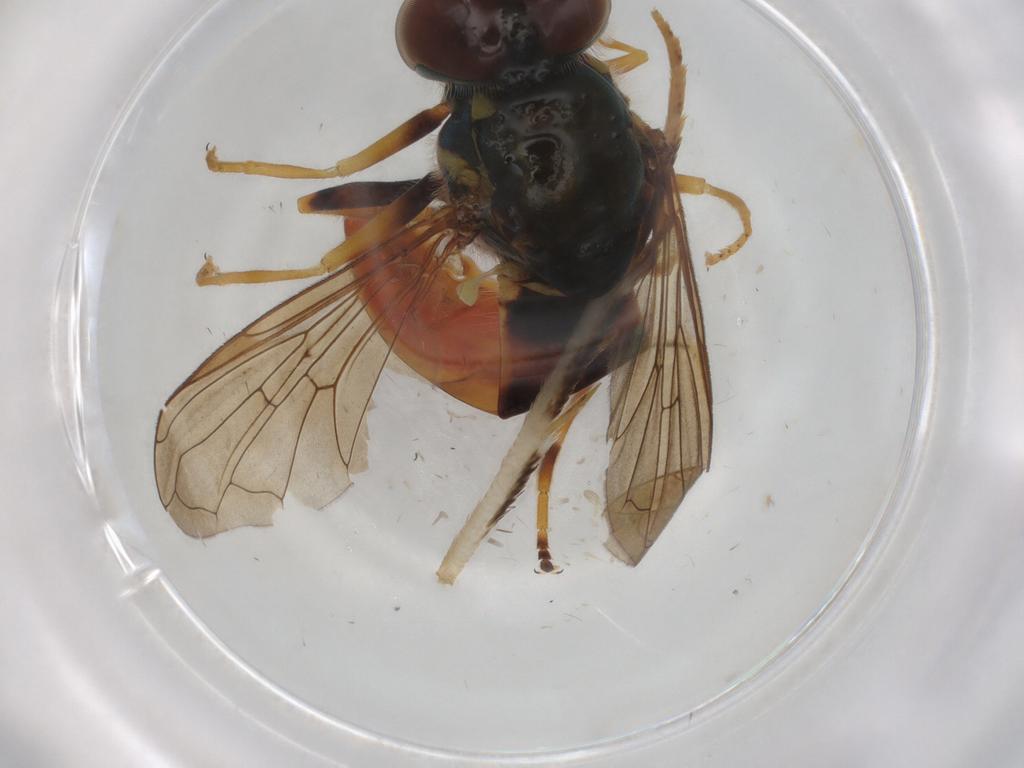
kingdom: Animalia
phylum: Arthropoda
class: Insecta
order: Diptera
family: Syrphidae
